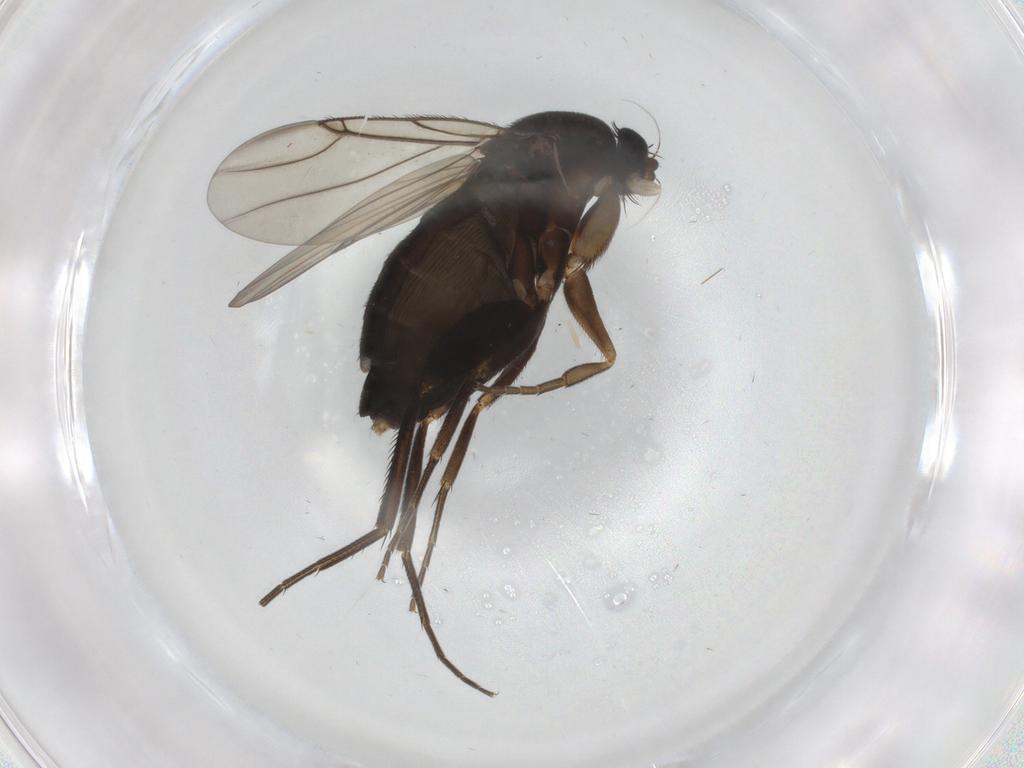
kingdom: Animalia
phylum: Arthropoda
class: Insecta
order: Diptera
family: Phoridae
